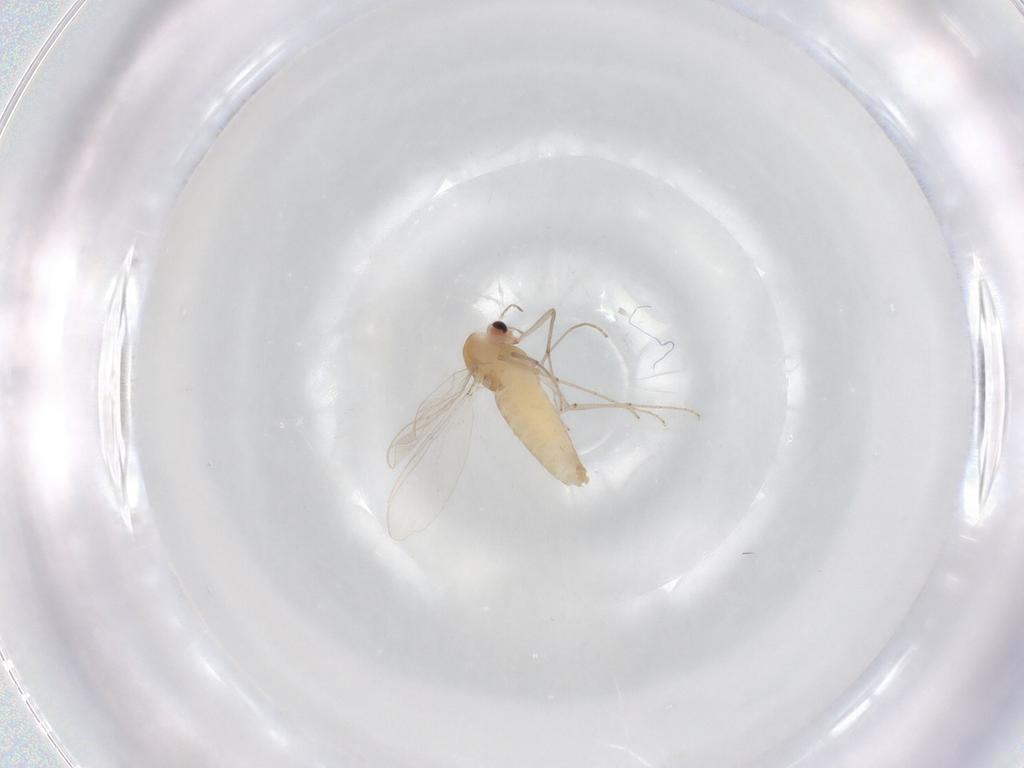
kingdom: Animalia
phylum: Arthropoda
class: Insecta
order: Diptera
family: Chironomidae
